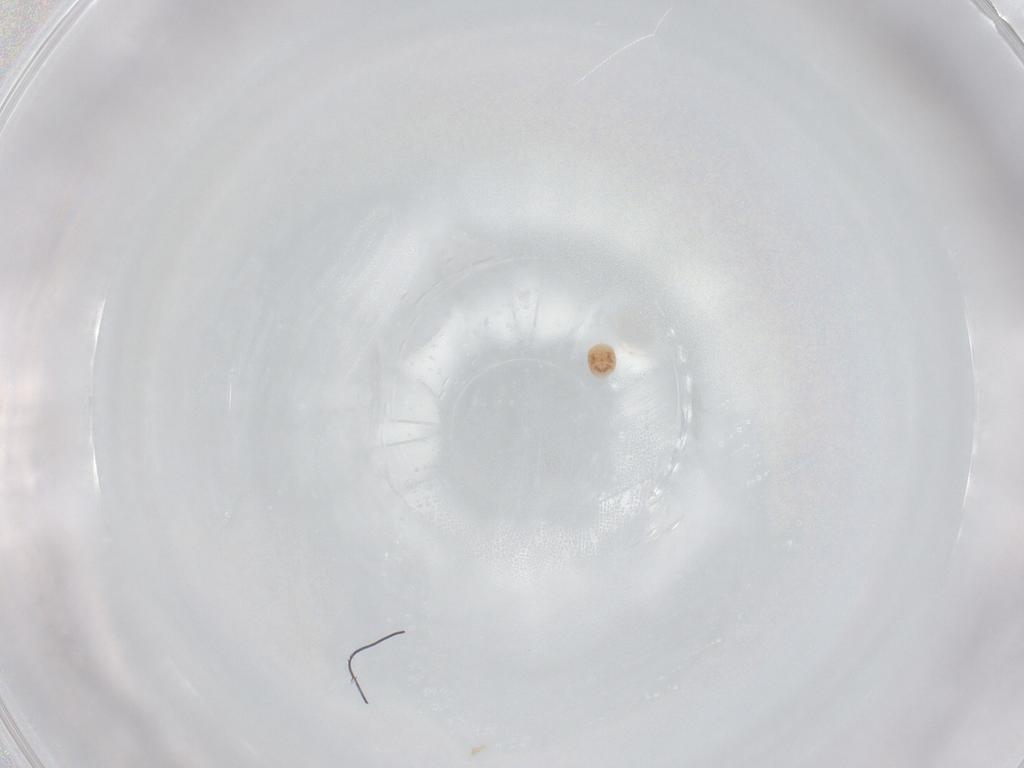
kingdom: Animalia
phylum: Arthropoda
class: Arachnida
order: Trombidiformes
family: Scutacaridae
